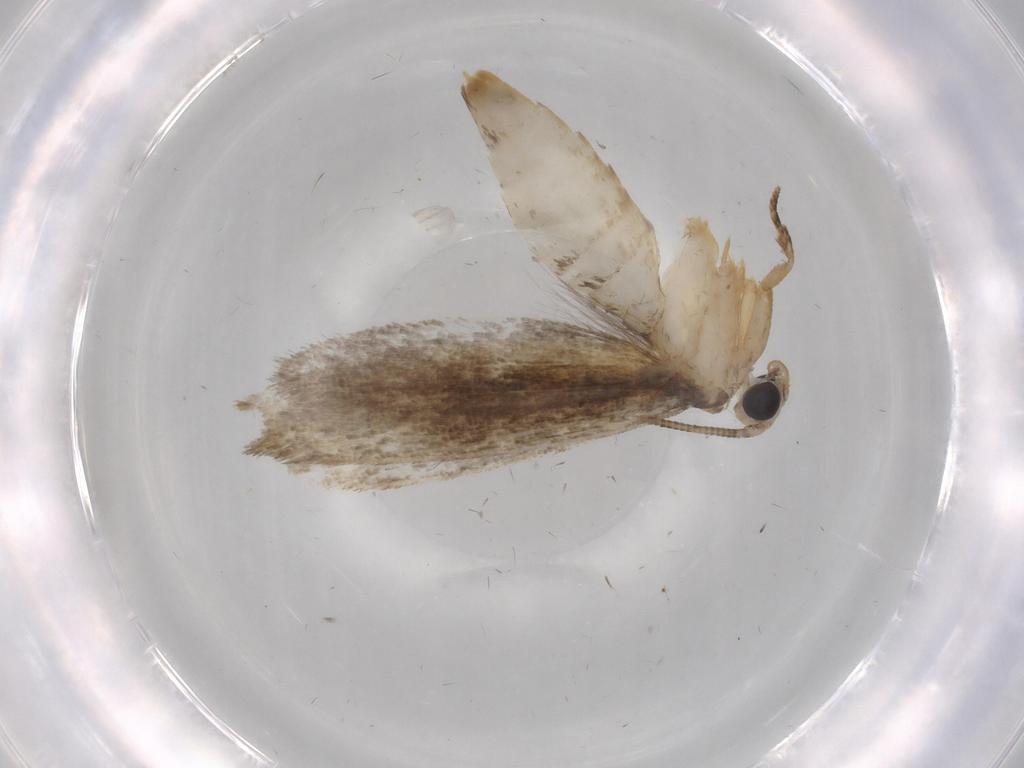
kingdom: Animalia
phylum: Arthropoda
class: Insecta
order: Lepidoptera
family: Tineidae
